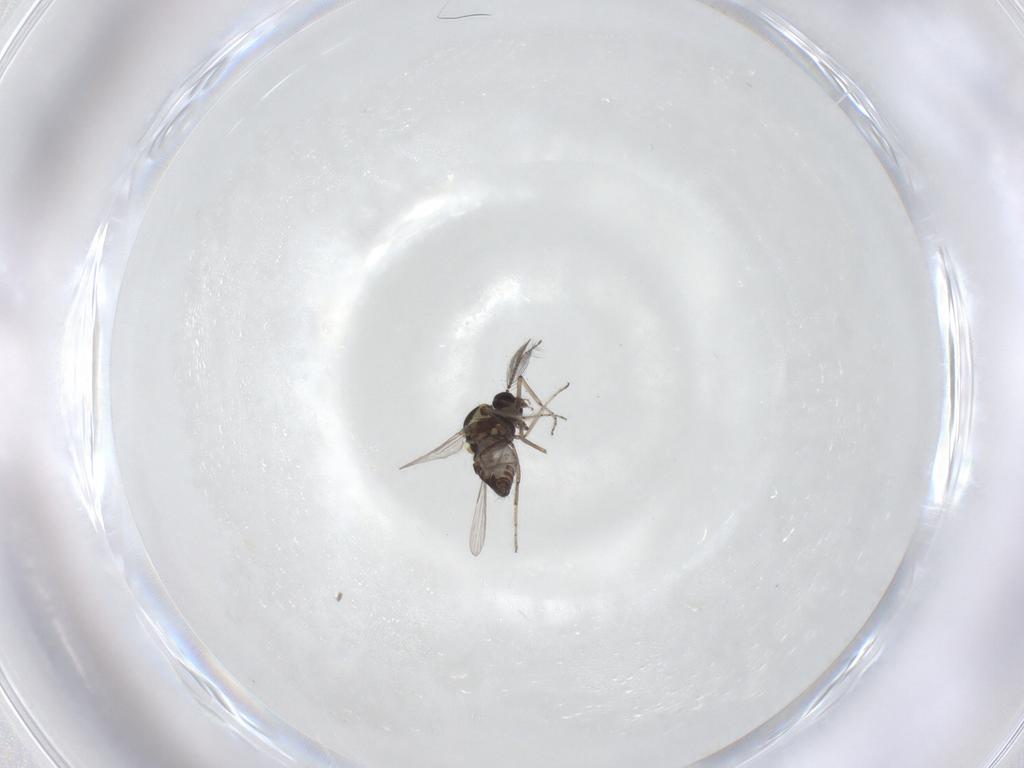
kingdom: Animalia
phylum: Arthropoda
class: Insecta
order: Diptera
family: Ceratopogonidae
